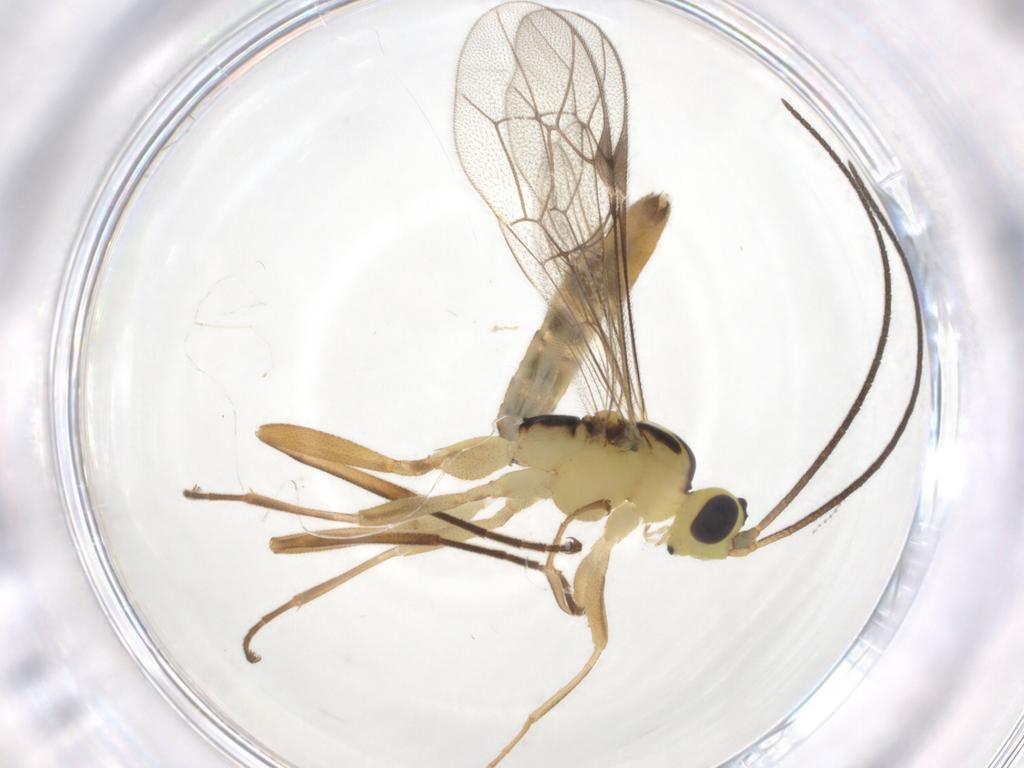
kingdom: Animalia
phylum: Arthropoda
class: Insecta
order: Hymenoptera
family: Ichneumonidae
